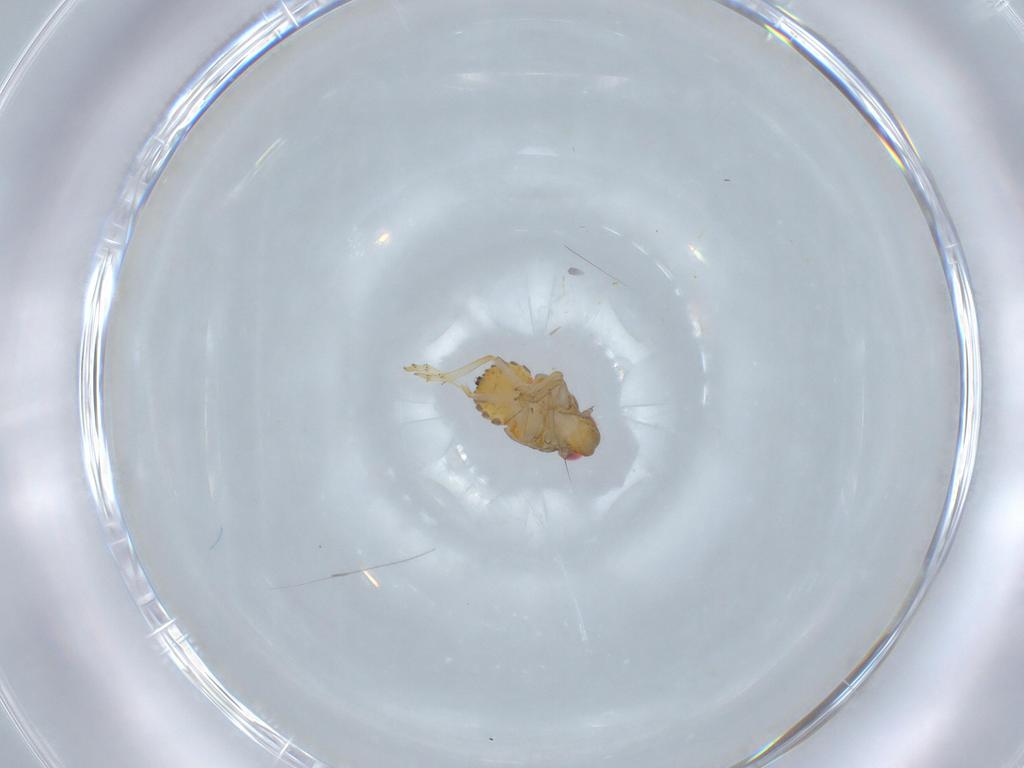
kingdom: Animalia
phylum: Arthropoda
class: Insecta
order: Hemiptera
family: Issidae
